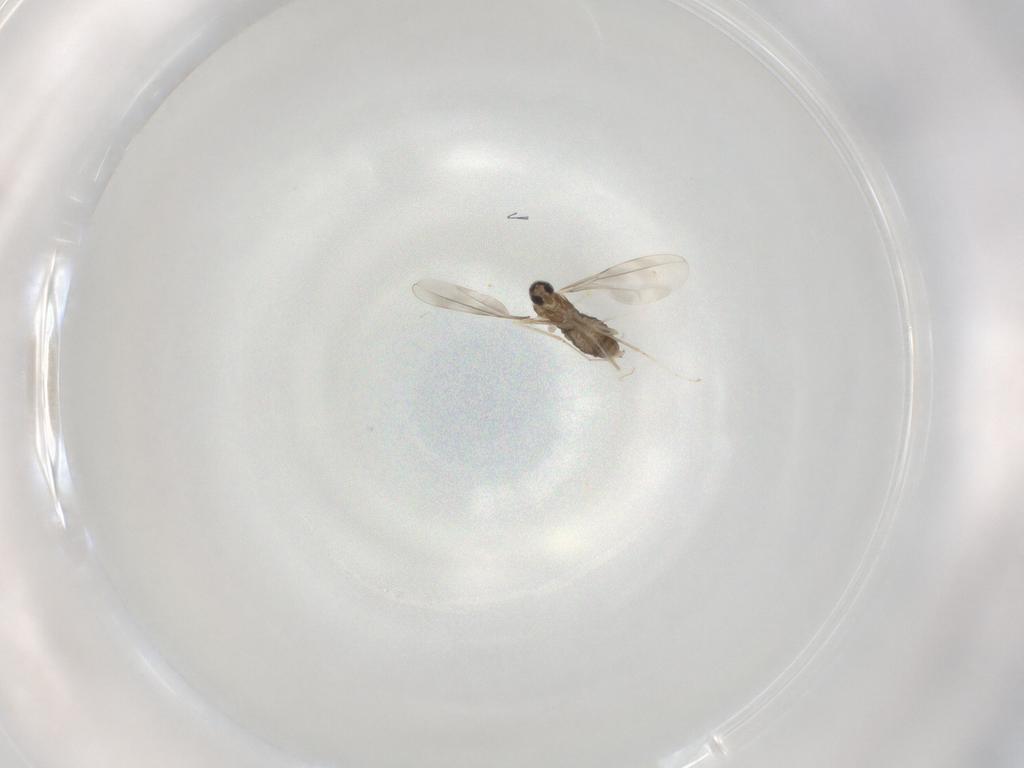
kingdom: Animalia
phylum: Arthropoda
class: Insecta
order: Diptera
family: Cecidomyiidae
